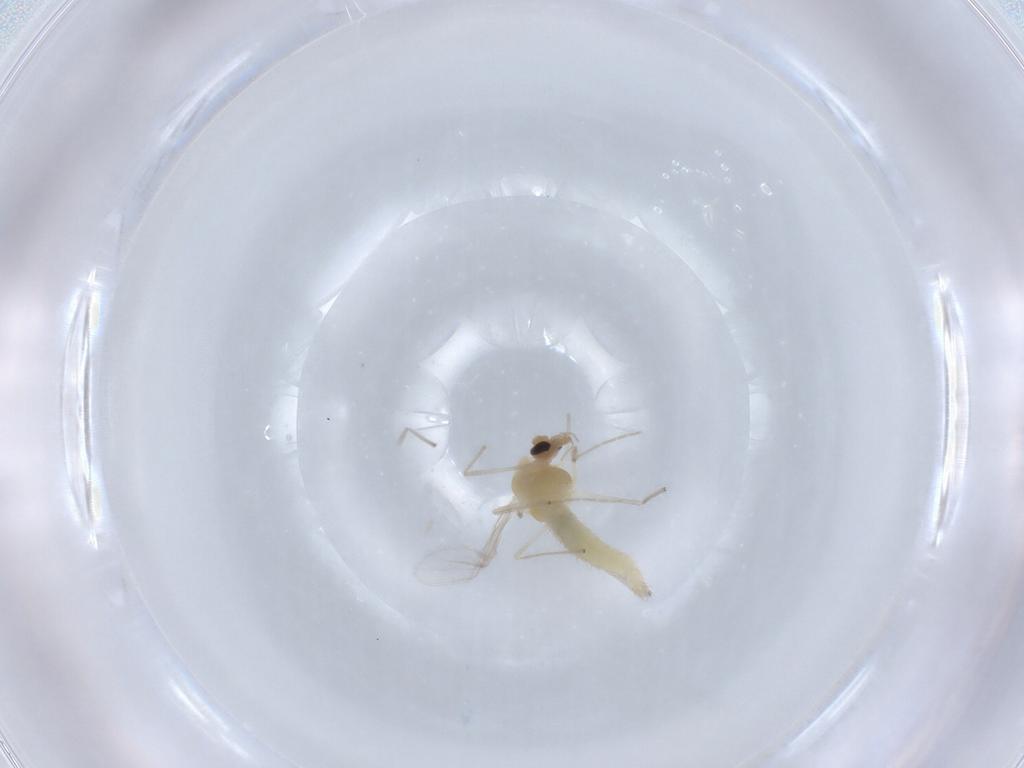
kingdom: Animalia
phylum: Arthropoda
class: Insecta
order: Diptera
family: Chironomidae
